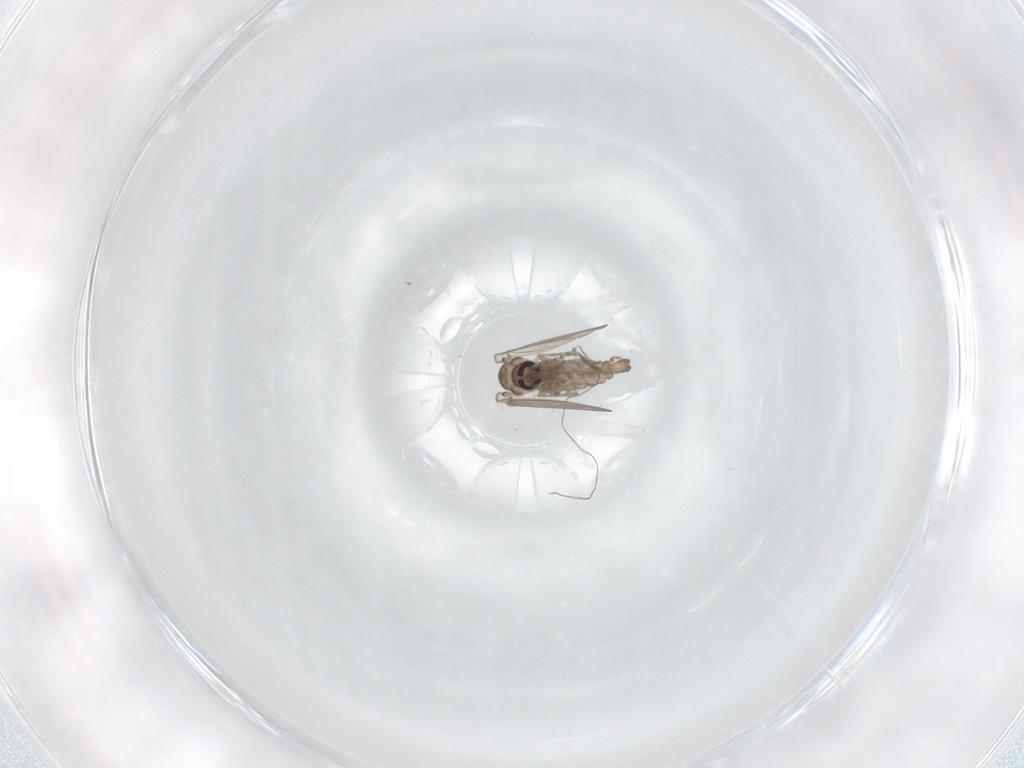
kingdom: Animalia
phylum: Arthropoda
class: Insecta
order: Diptera
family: Psychodidae
